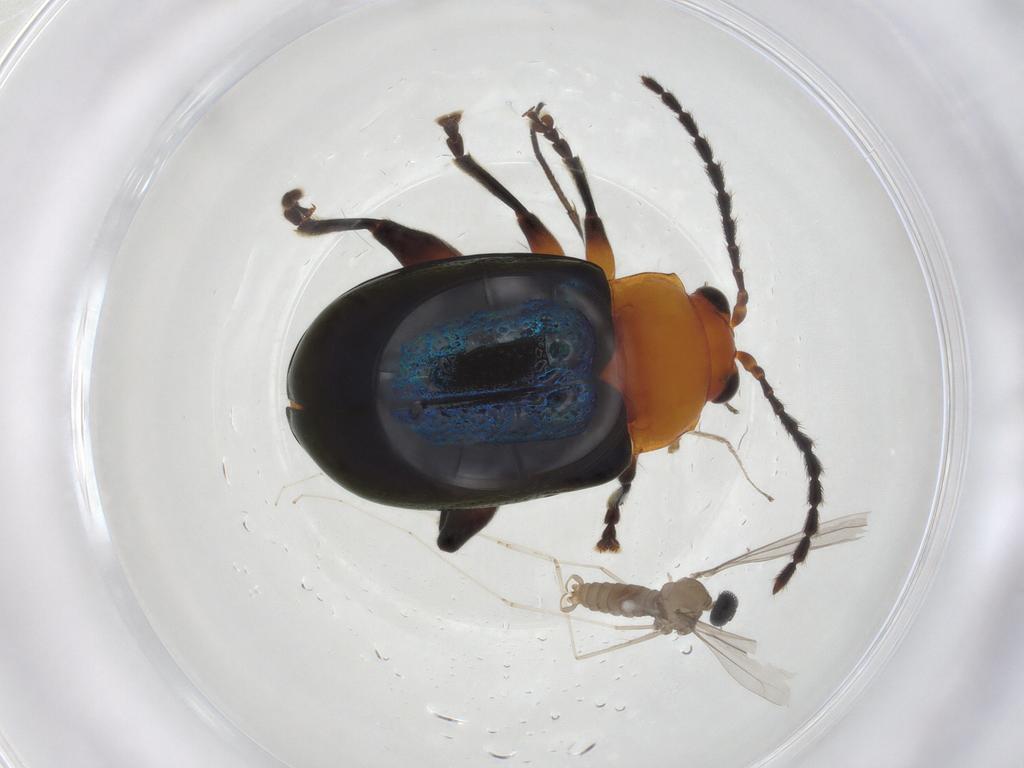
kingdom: Animalia
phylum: Arthropoda
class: Insecta
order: Diptera
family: Cecidomyiidae
